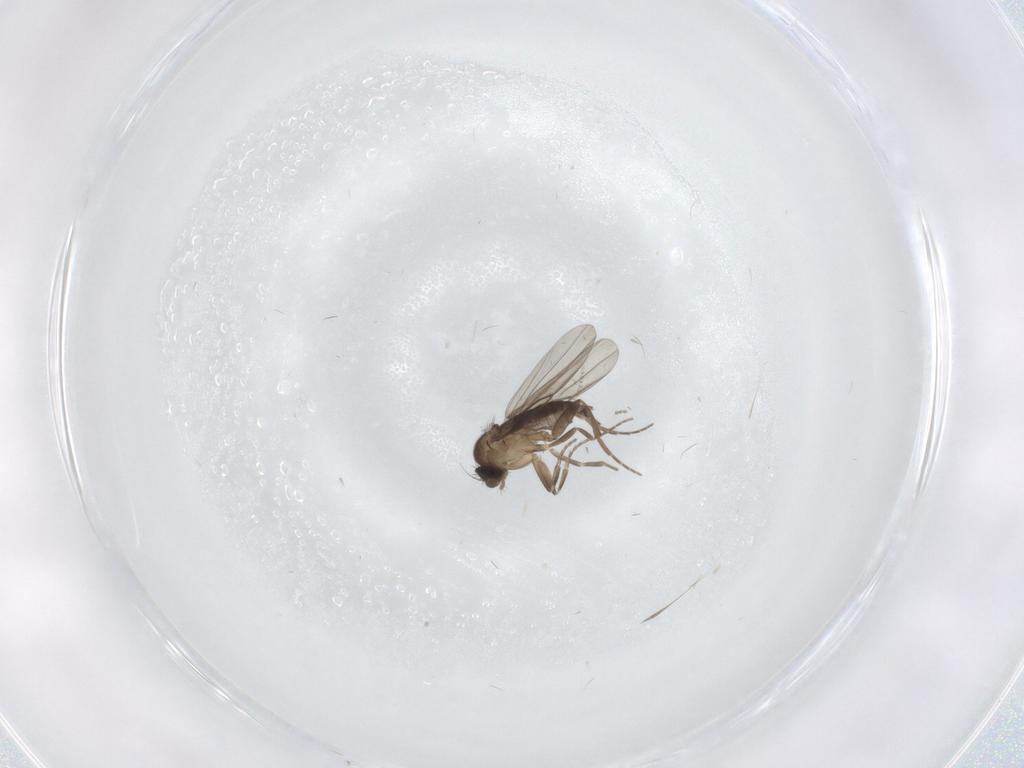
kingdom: Animalia
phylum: Arthropoda
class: Insecta
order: Diptera
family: Cecidomyiidae
